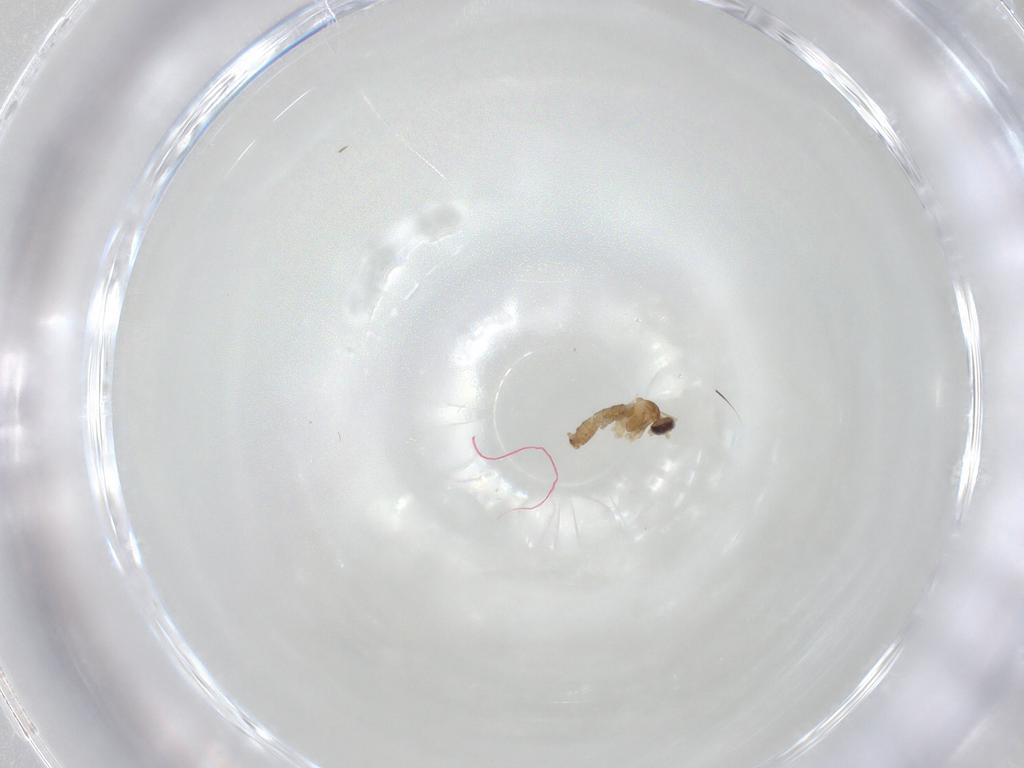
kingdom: Animalia
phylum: Arthropoda
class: Insecta
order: Diptera
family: Cecidomyiidae
